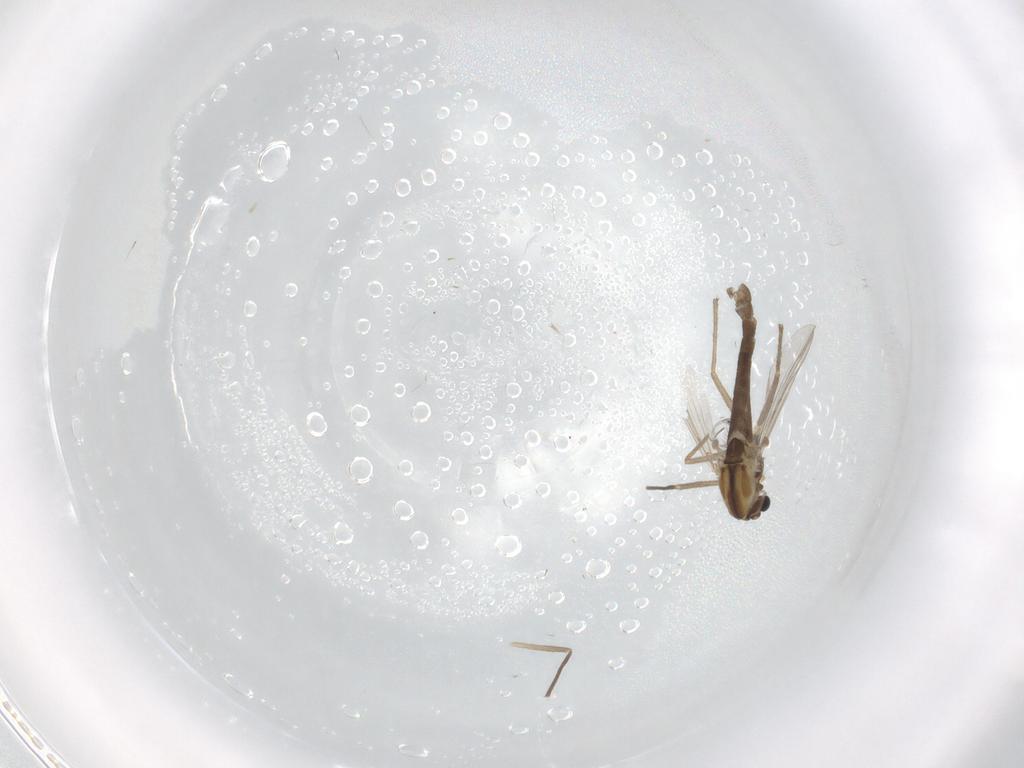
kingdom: Animalia
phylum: Arthropoda
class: Insecta
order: Diptera
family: Chironomidae
